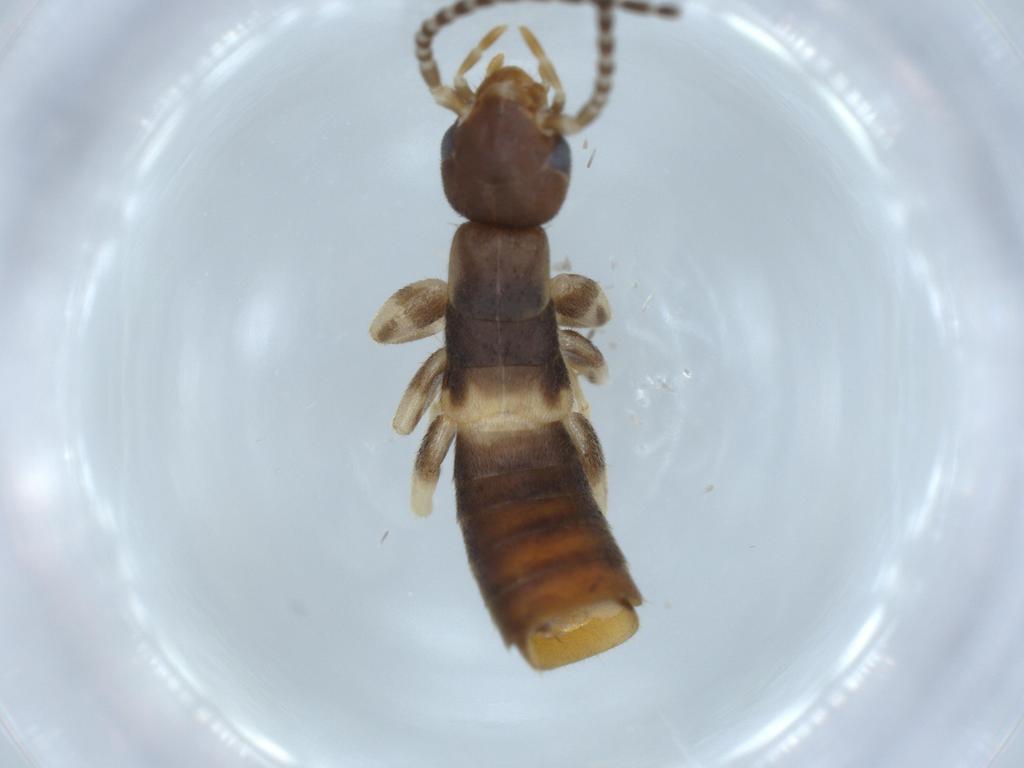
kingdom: Animalia
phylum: Arthropoda
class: Insecta
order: Dermaptera
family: Forficulidae
